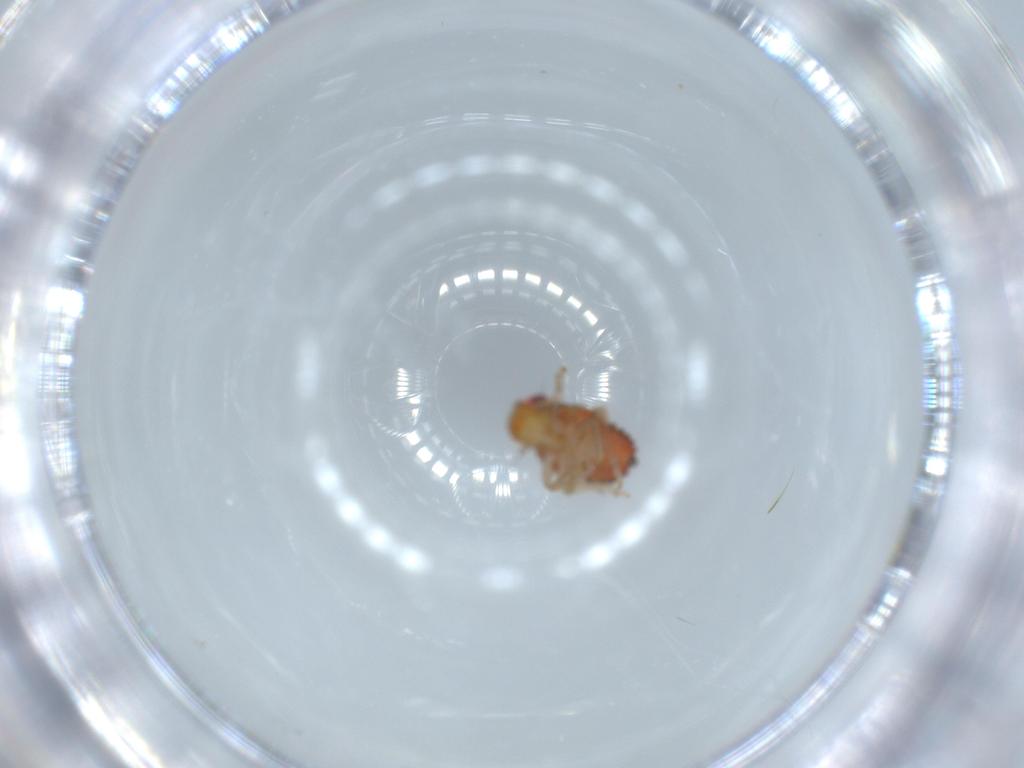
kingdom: Animalia
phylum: Arthropoda
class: Insecta
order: Hemiptera
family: Issidae
